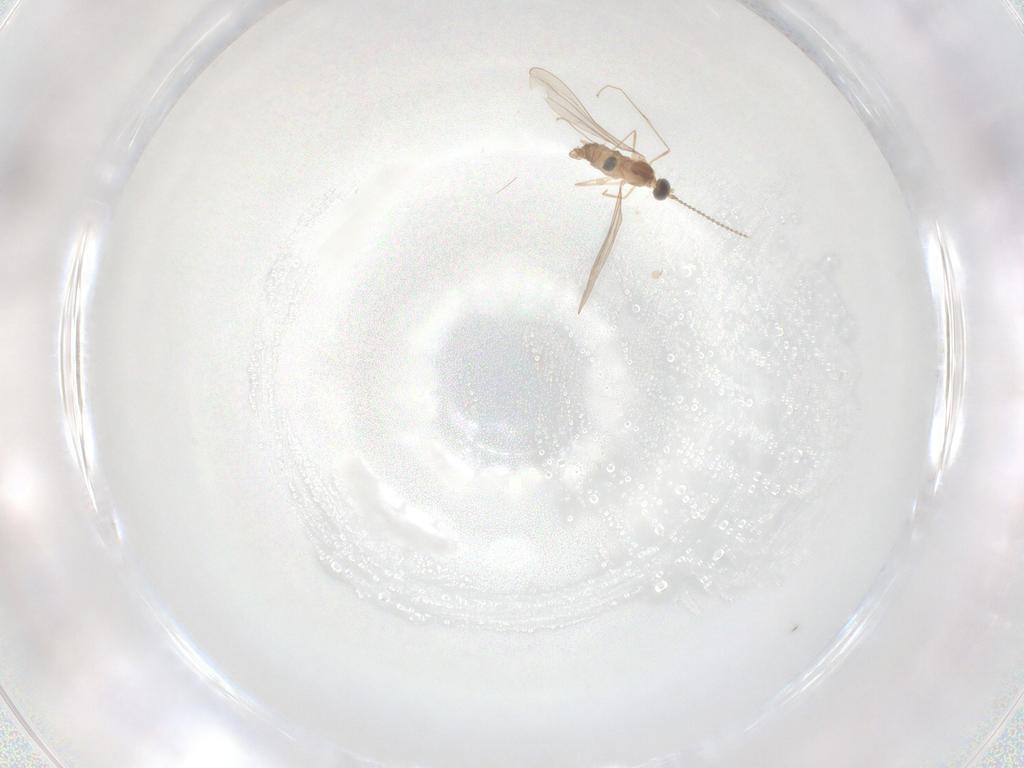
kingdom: Animalia
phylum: Arthropoda
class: Insecta
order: Diptera
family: Cecidomyiidae
